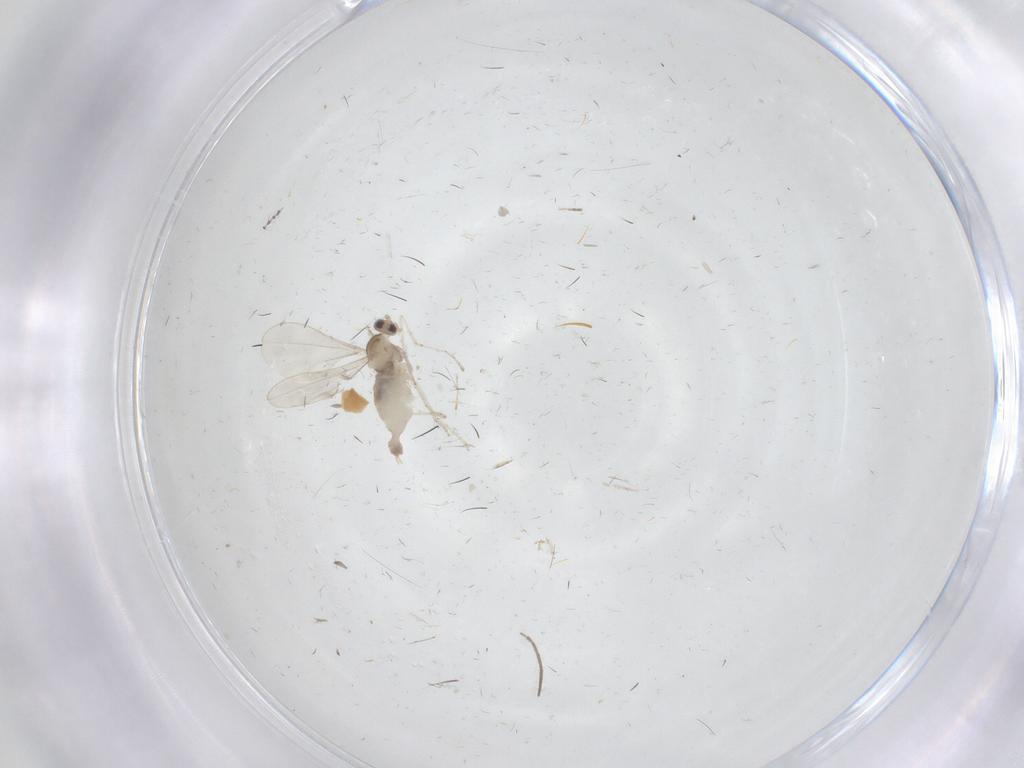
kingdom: Animalia
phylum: Arthropoda
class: Insecta
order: Diptera
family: Cecidomyiidae
